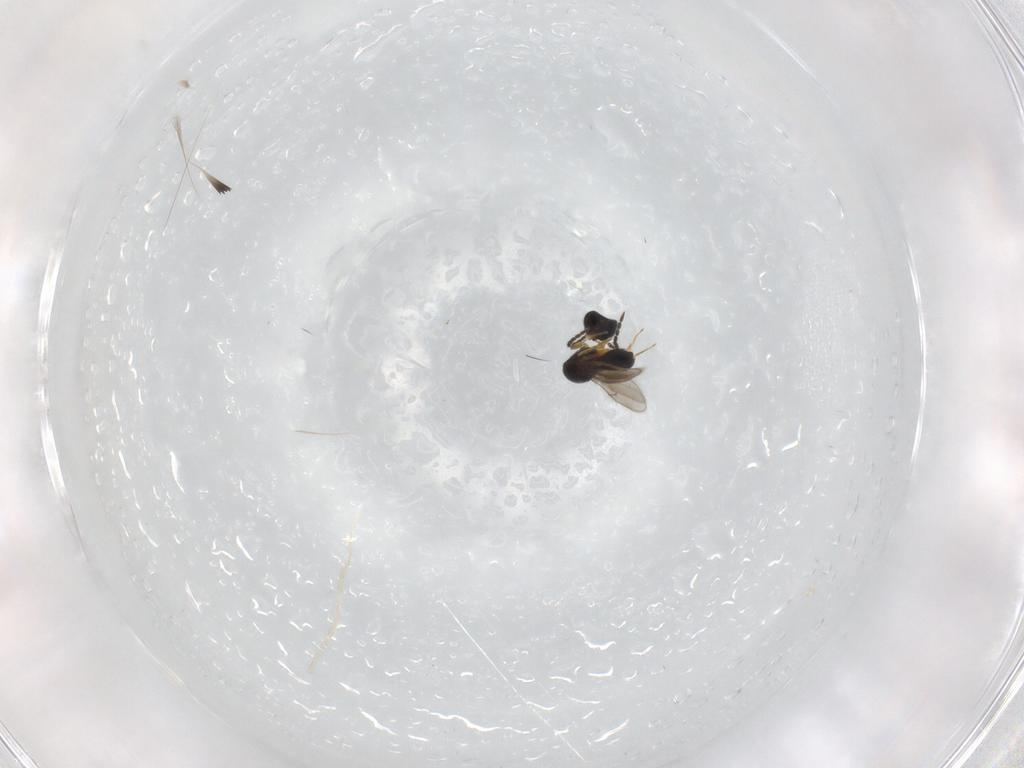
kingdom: Animalia
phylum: Arthropoda
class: Insecta
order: Hymenoptera
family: Scelionidae
